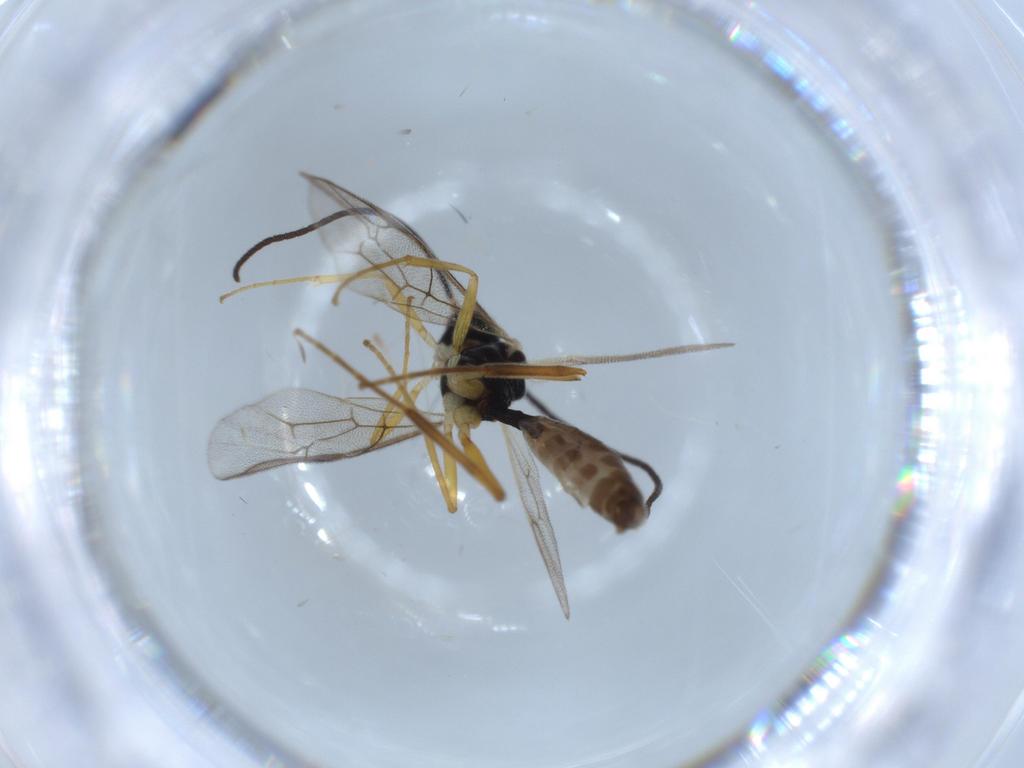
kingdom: Animalia
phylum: Arthropoda
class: Insecta
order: Hymenoptera
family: Ichneumonidae
